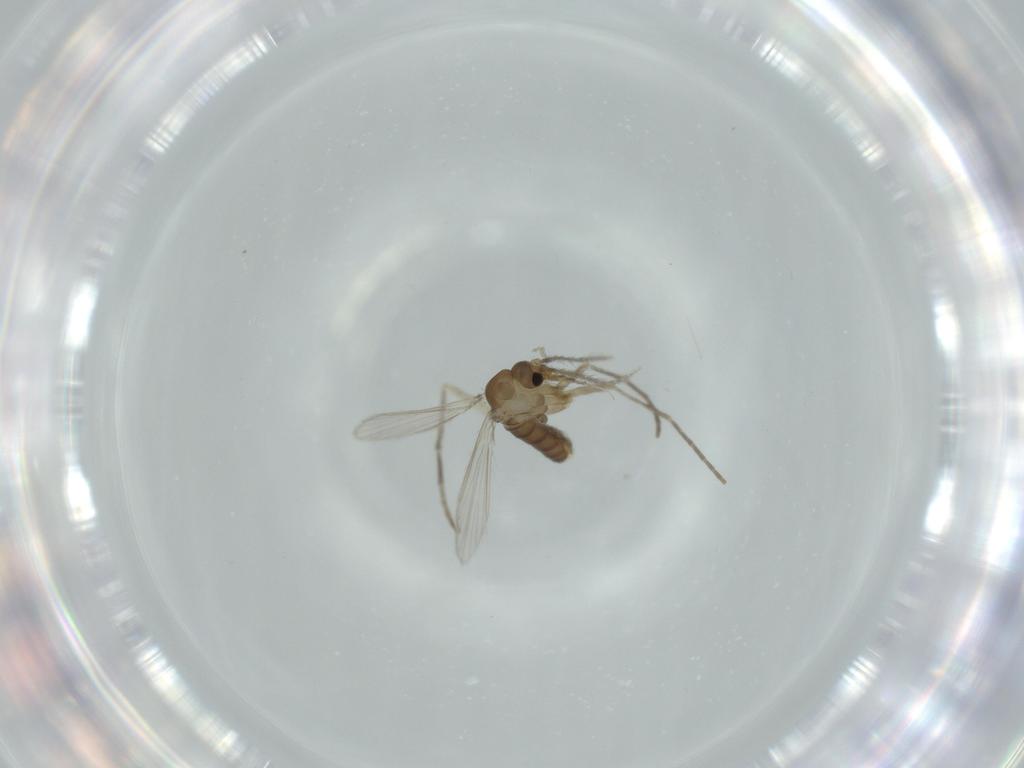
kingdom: Animalia
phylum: Arthropoda
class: Insecta
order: Diptera
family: Psychodidae
